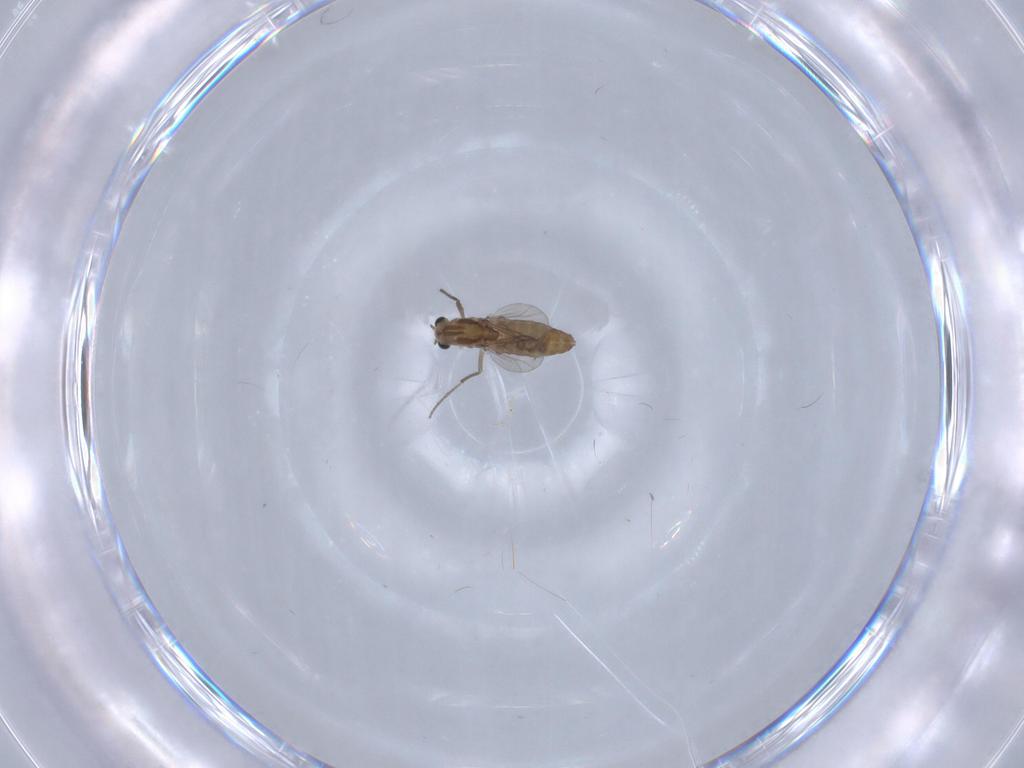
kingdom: Animalia
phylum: Arthropoda
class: Insecta
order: Diptera
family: Chironomidae
